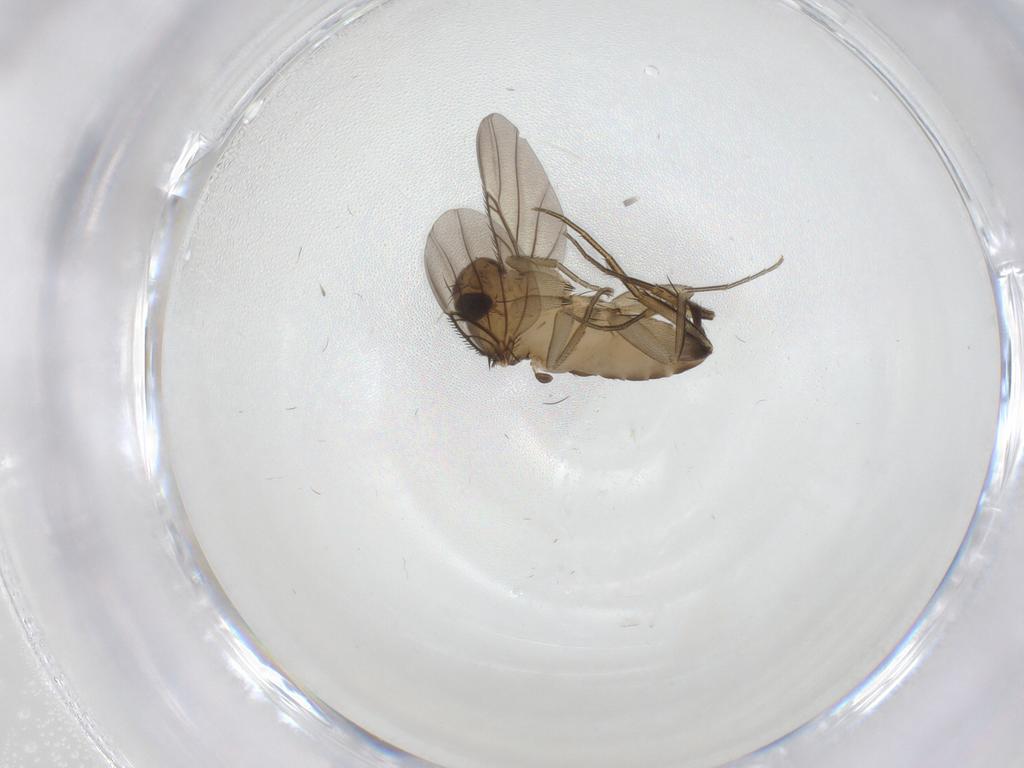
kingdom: Animalia
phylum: Arthropoda
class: Insecta
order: Diptera
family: Phoridae
